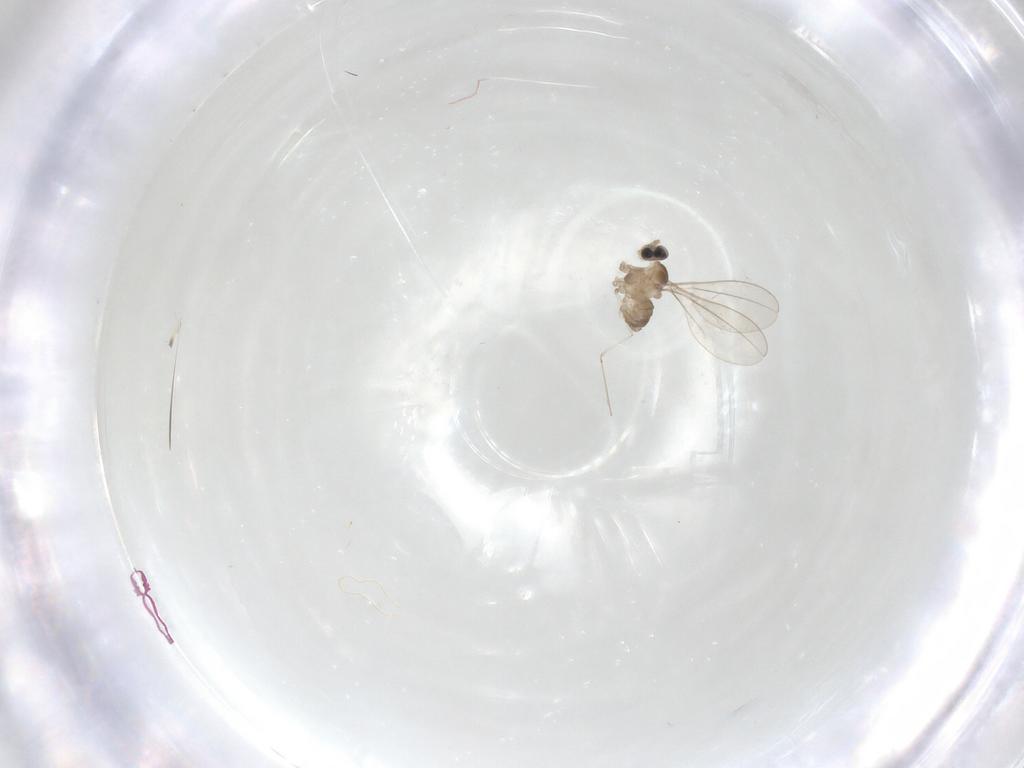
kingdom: Animalia
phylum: Arthropoda
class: Insecta
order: Diptera
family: Cecidomyiidae
